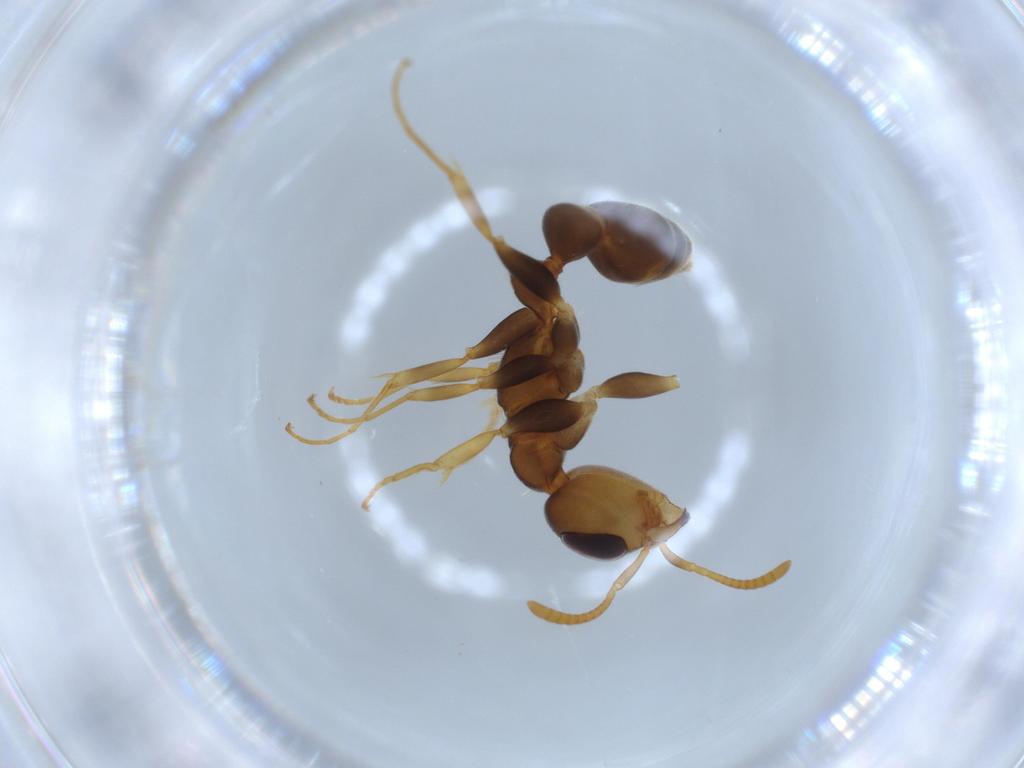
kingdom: Animalia
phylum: Arthropoda
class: Insecta
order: Hymenoptera
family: Formicidae
